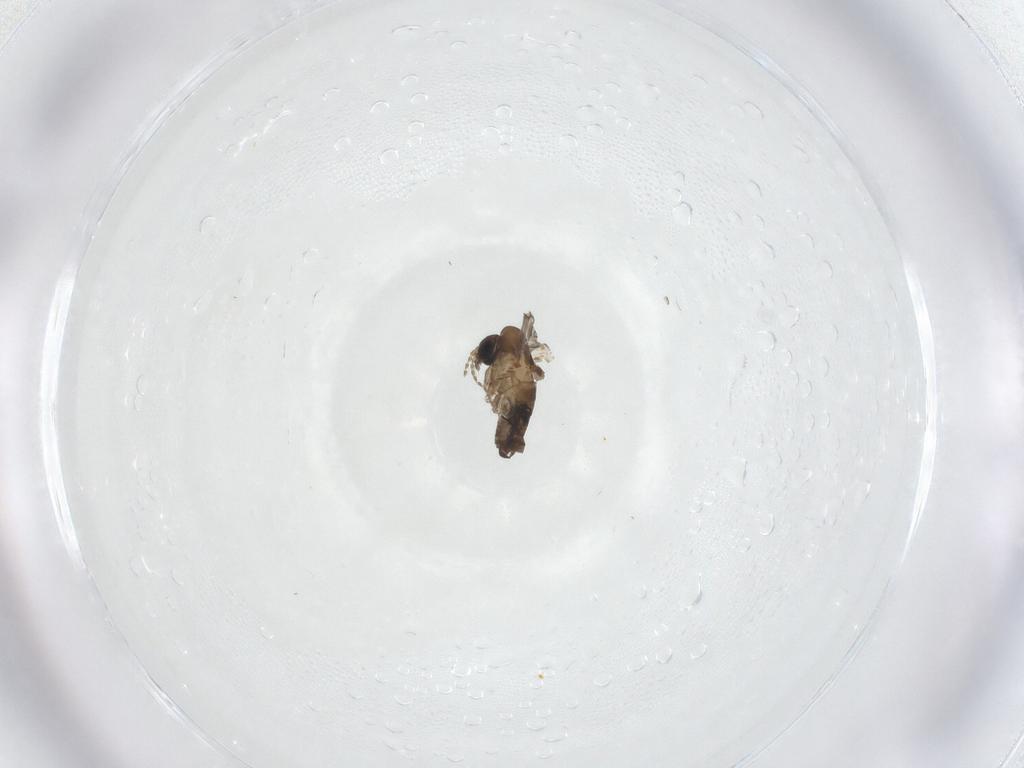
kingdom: Animalia
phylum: Arthropoda
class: Insecta
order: Diptera
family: Psychodidae
